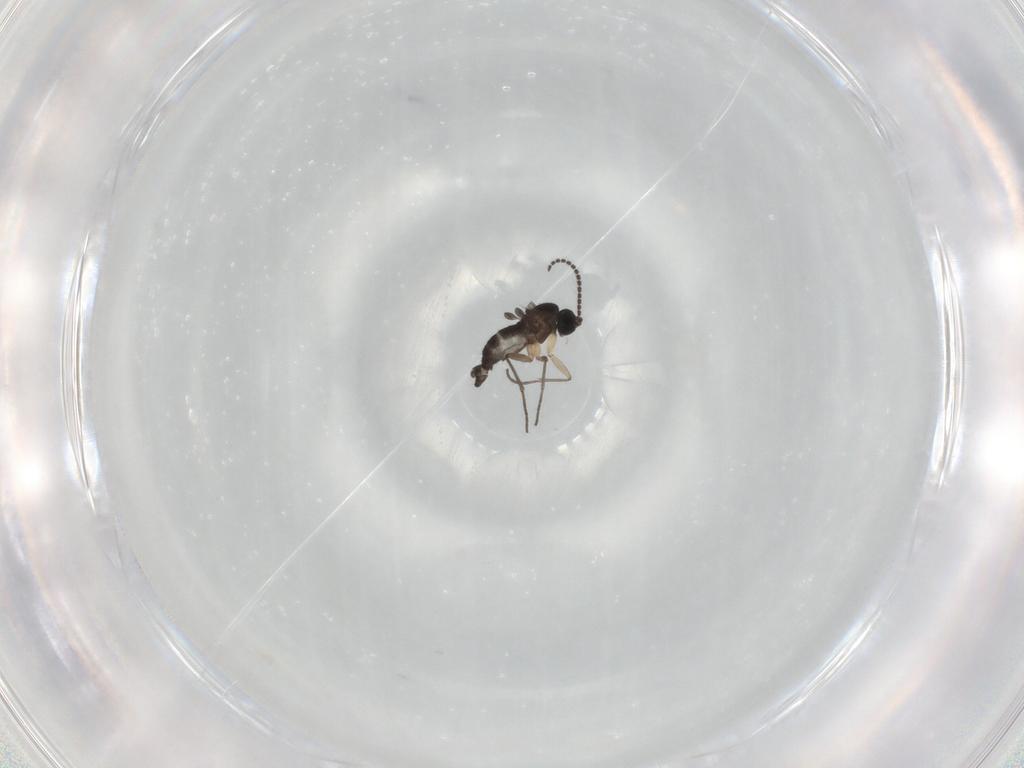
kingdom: Animalia
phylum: Arthropoda
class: Insecta
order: Diptera
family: Sciaridae
